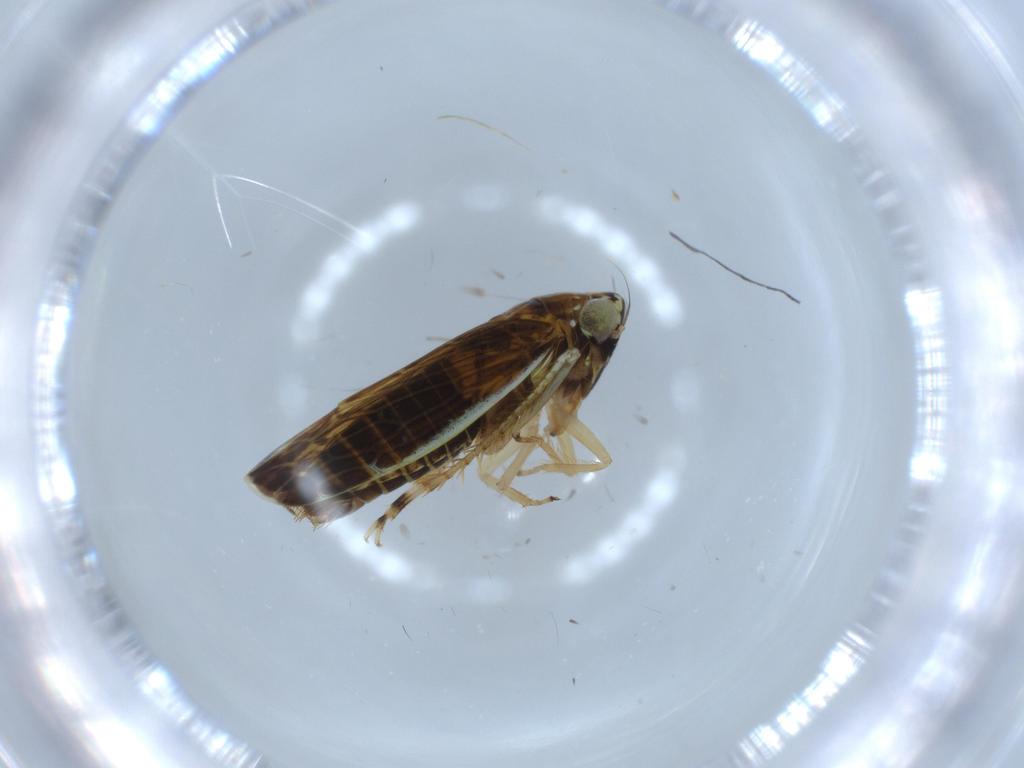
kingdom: Animalia
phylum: Arthropoda
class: Insecta
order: Hemiptera
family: Cicadellidae
